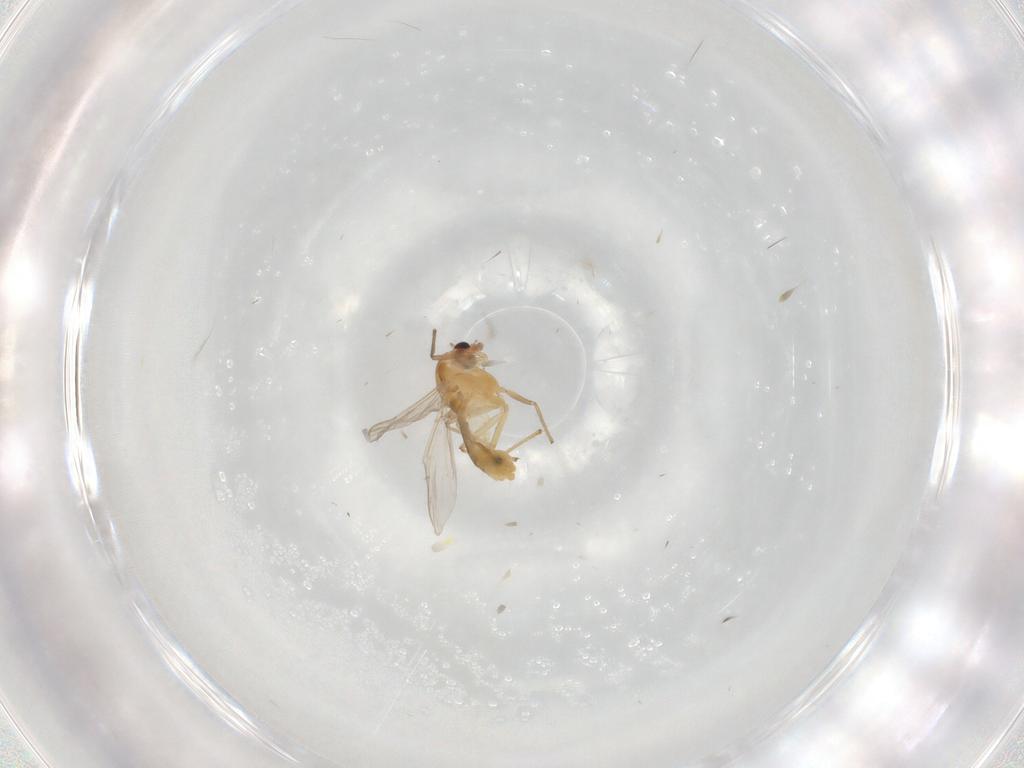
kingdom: Animalia
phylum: Arthropoda
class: Insecta
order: Diptera
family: Chironomidae
